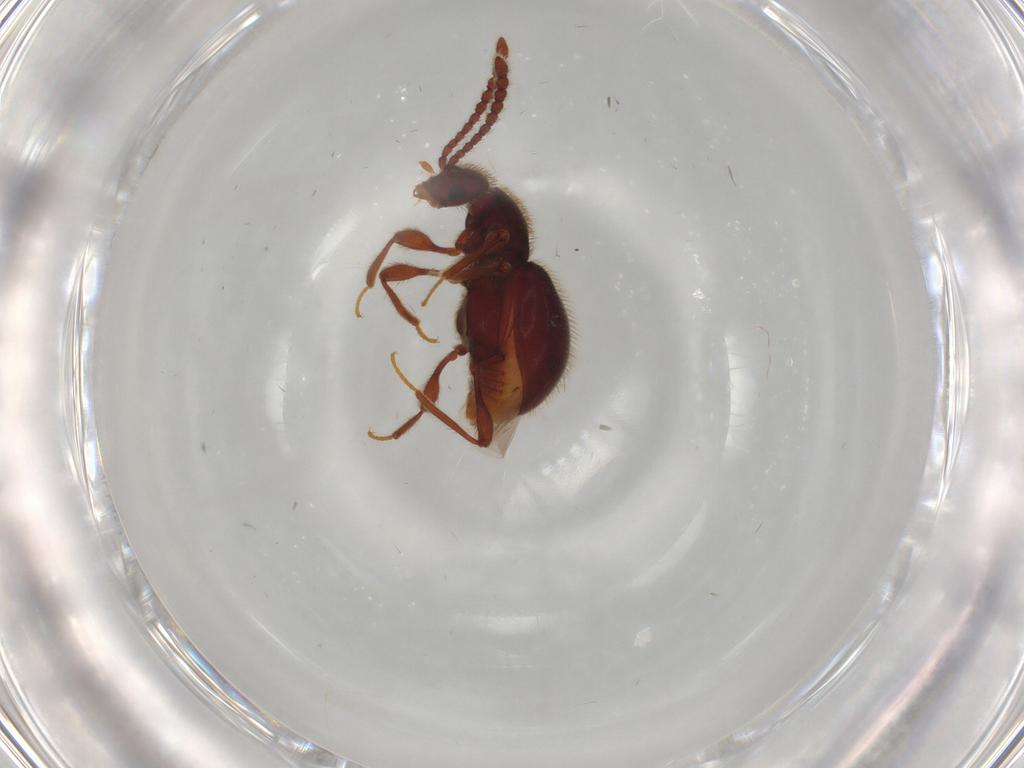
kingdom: Animalia
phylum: Arthropoda
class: Insecta
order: Coleoptera
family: Staphylinidae
